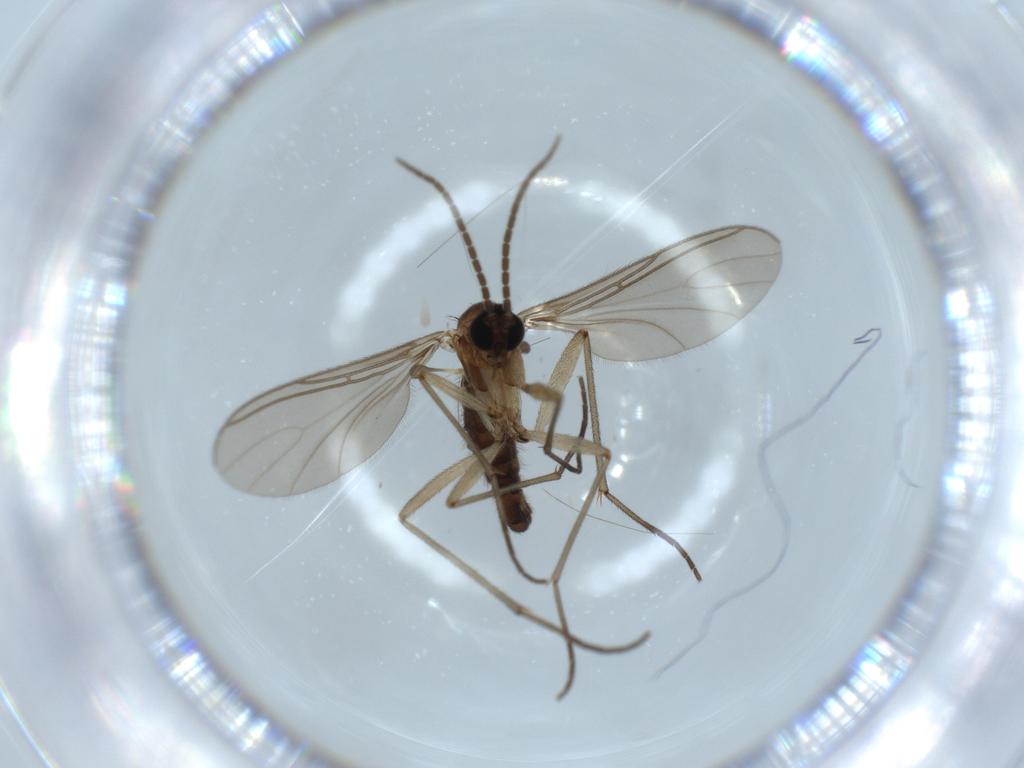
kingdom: Animalia
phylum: Arthropoda
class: Insecta
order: Diptera
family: Sciaridae
